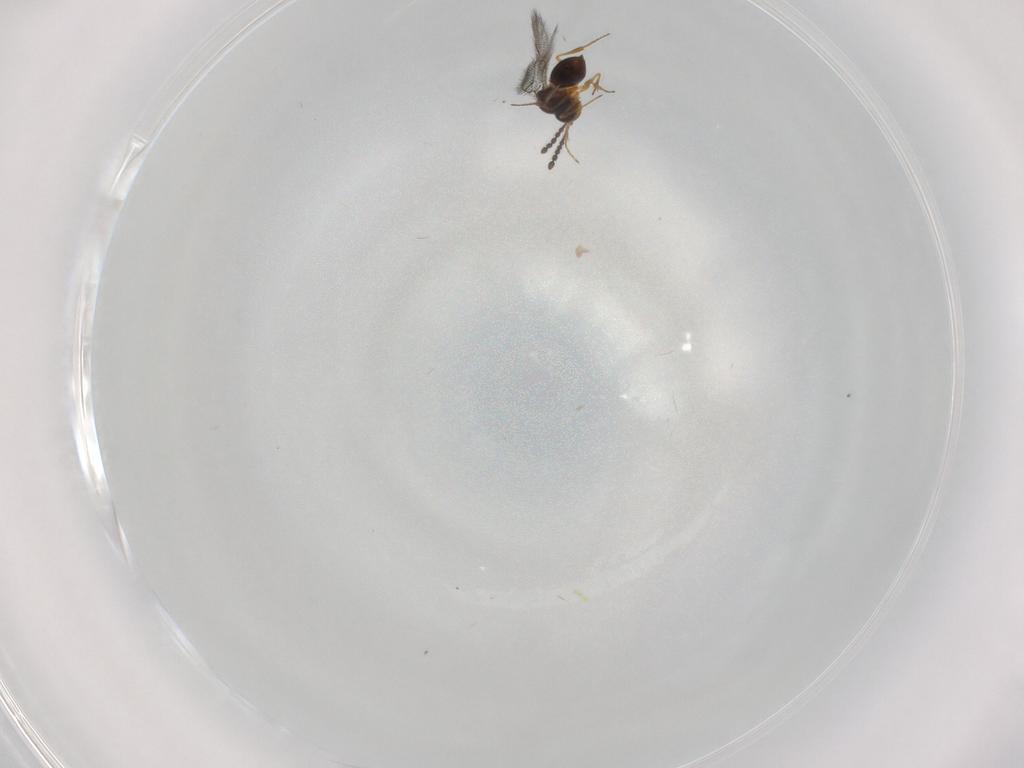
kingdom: Animalia
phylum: Arthropoda
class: Insecta
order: Hymenoptera
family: Figitidae
